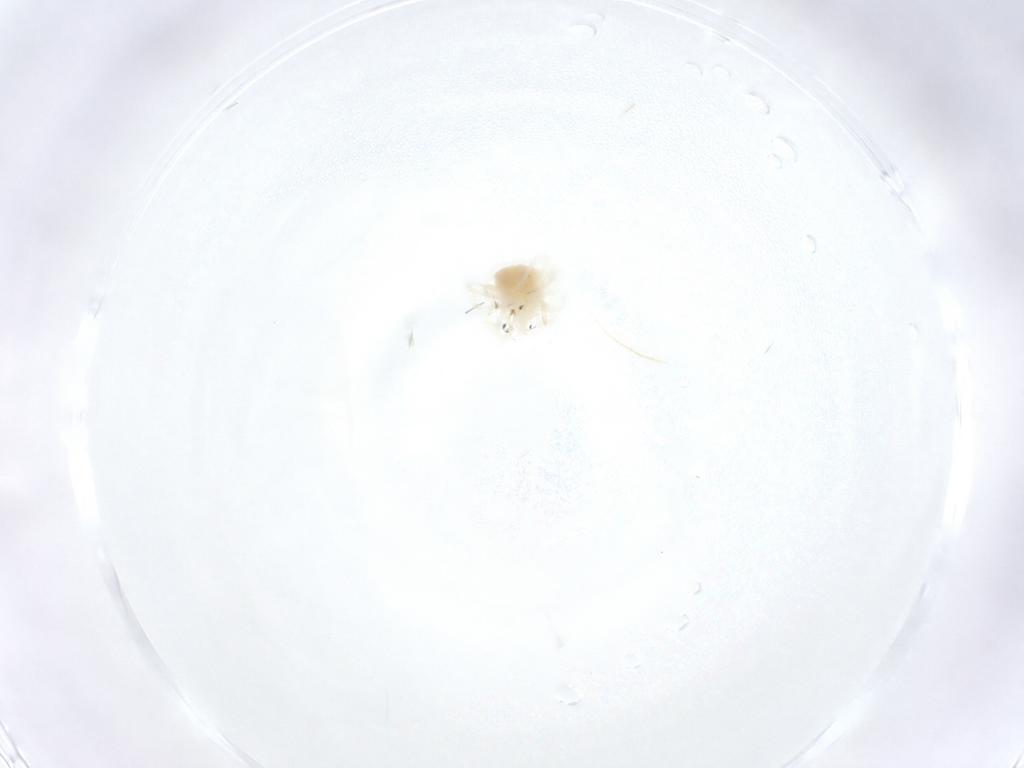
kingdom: Animalia
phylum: Arthropoda
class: Arachnida
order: Trombidiformes
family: Anystidae
